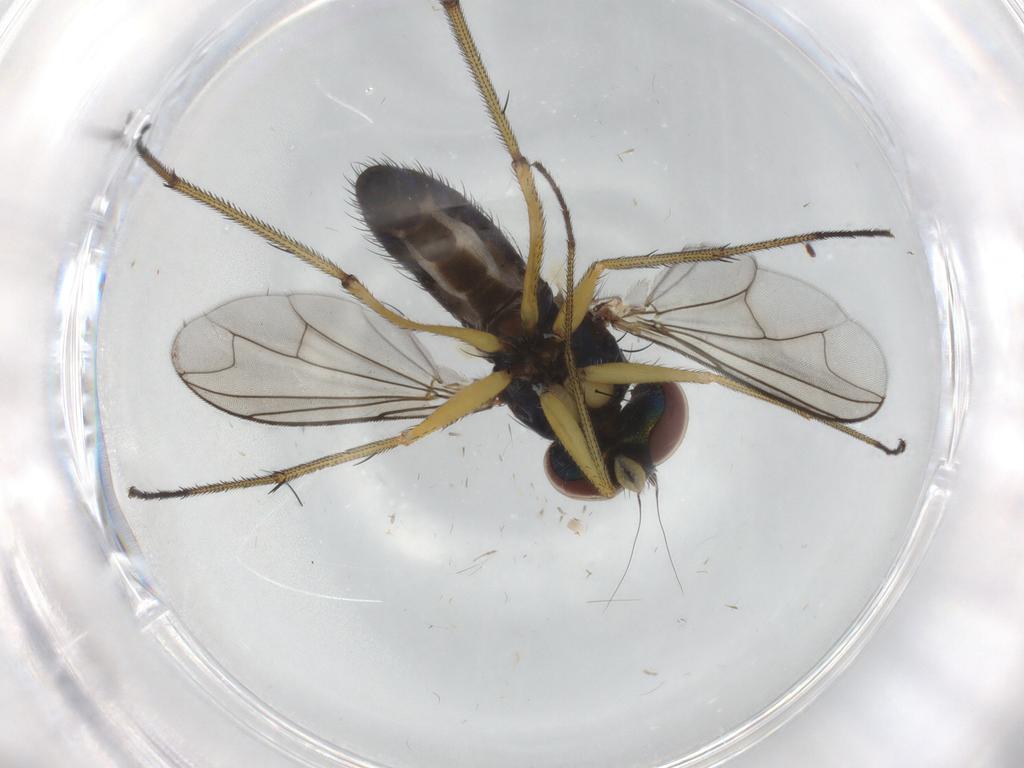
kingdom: Animalia
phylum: Arthropoda
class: Insecta
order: Diptera
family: Dolichopodidae
